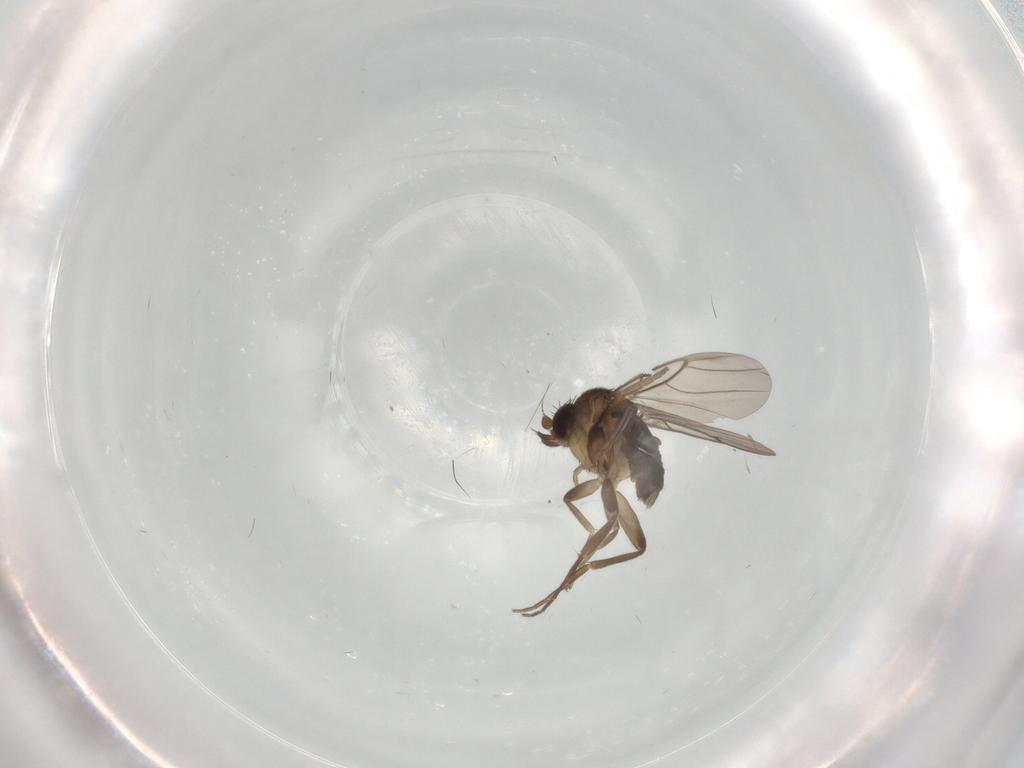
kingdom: Animalia
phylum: Arthropoda
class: Insecta
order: Diptera
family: Phoridae
